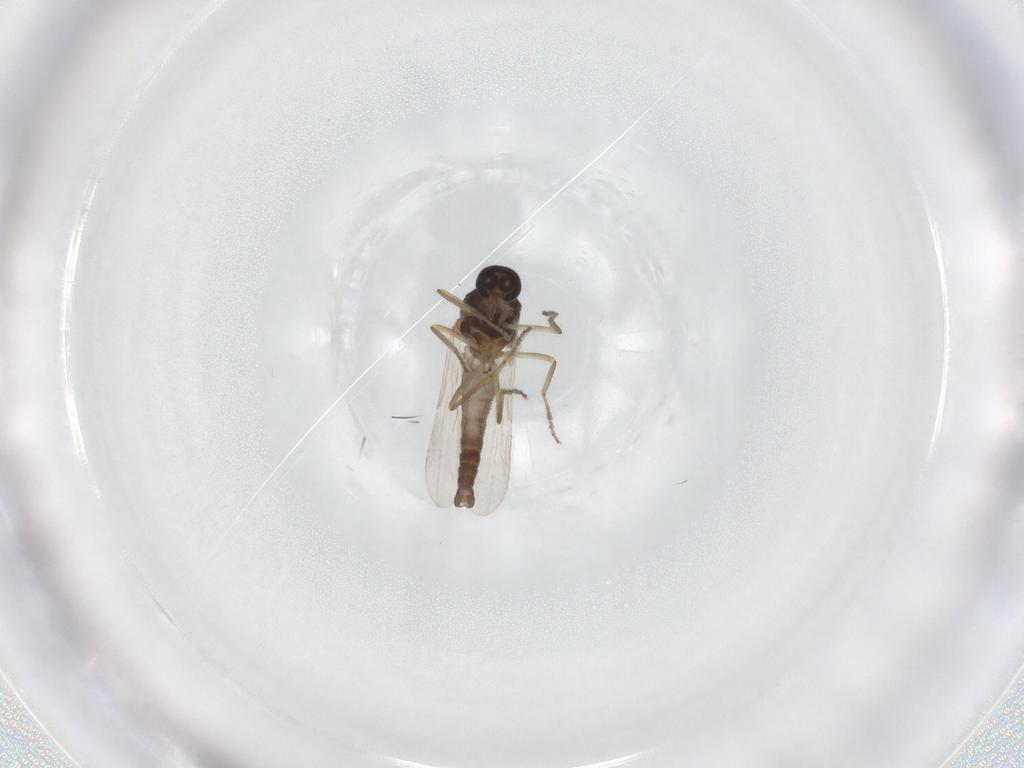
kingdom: Animalia
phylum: Arthropoda
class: Insecta
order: Diptera
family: Ceratopogonidae
